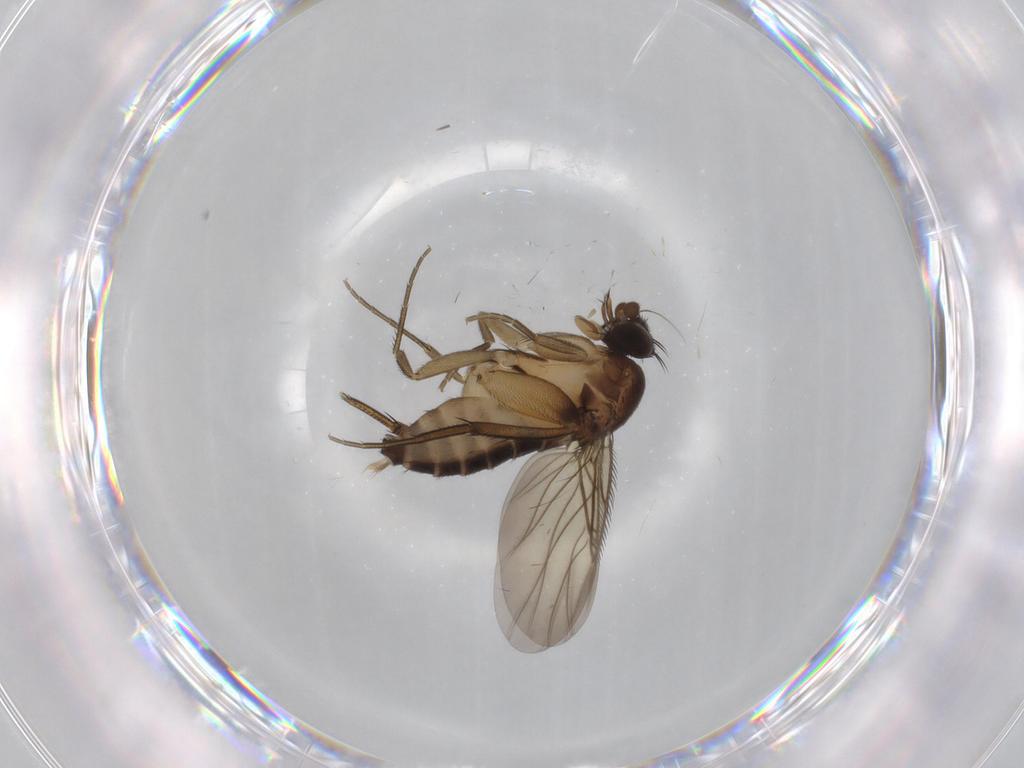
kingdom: Animalia
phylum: Arthropoda
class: Insecta
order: Diptera
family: Phoridae
